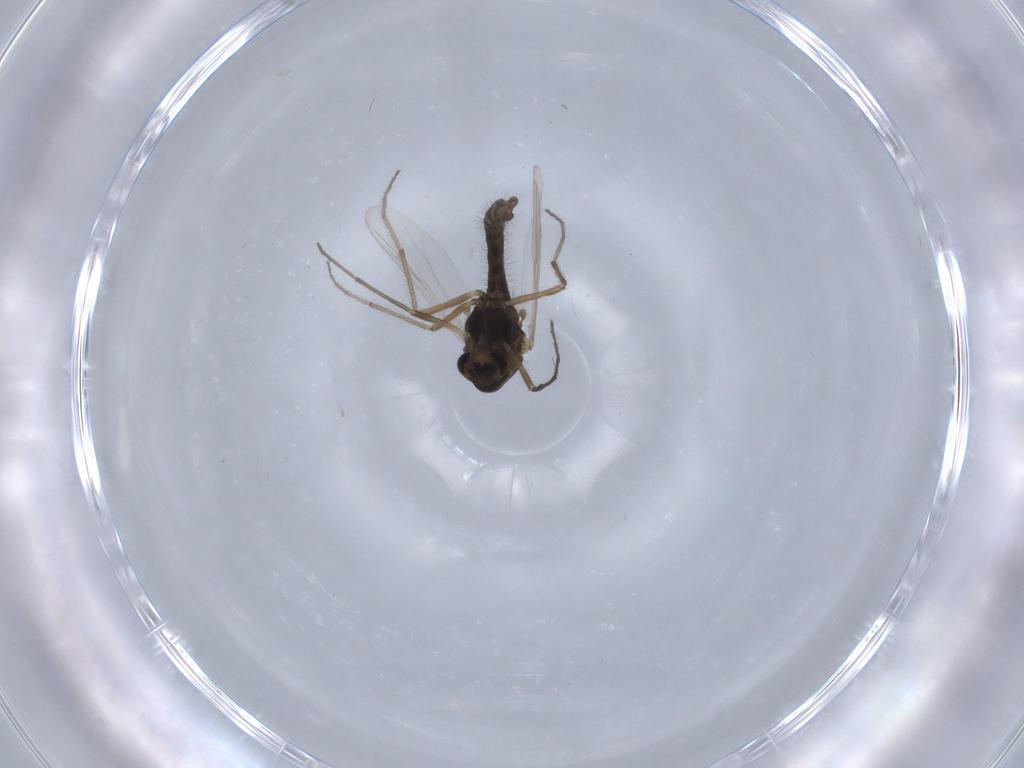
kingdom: Animalia
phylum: Arthropoda
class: Insecta
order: Diptera
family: Chironomidae
